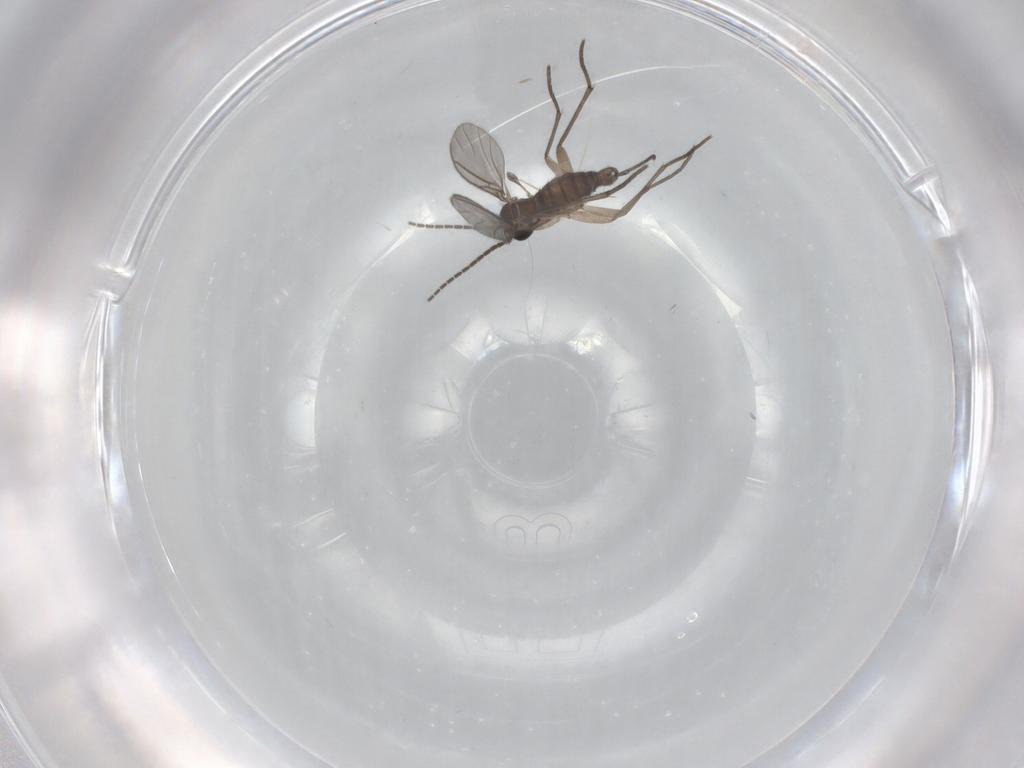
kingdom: Animalia
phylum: Arthropoda
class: Insecta
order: Diptera
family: Sciaridae
